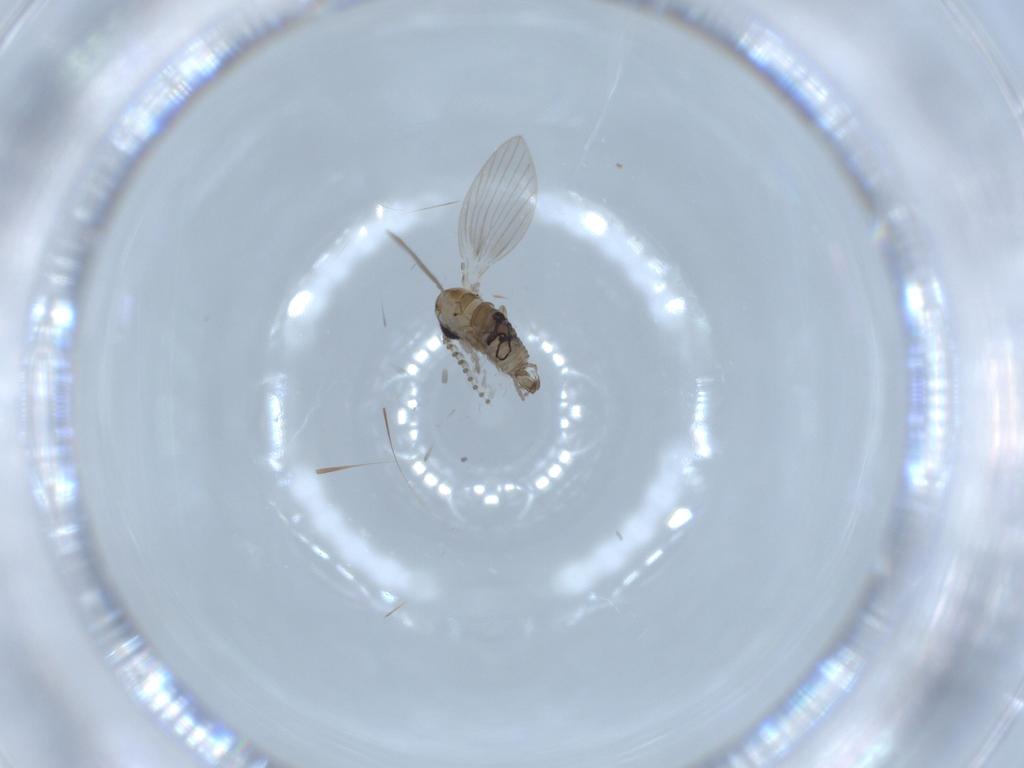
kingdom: Animalia
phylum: Arthropoda
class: Insecta
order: Diptera
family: Psychodidae
